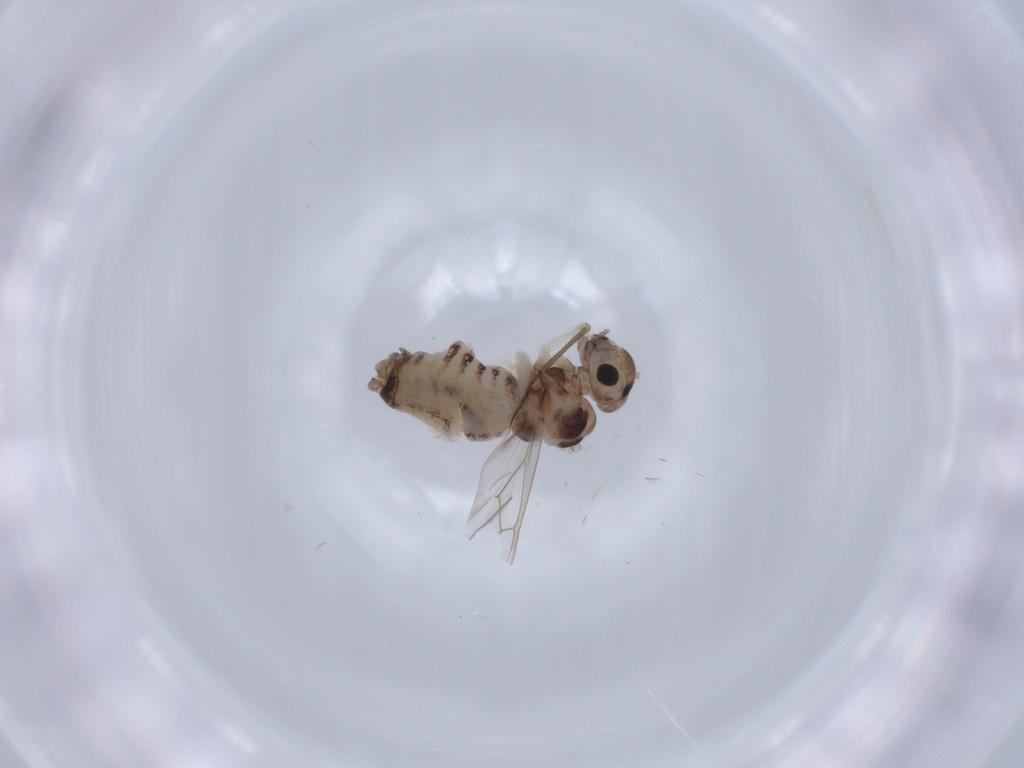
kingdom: Animalia
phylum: Arthropoda
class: Insecta
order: Psocodea
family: Peripsocidae
